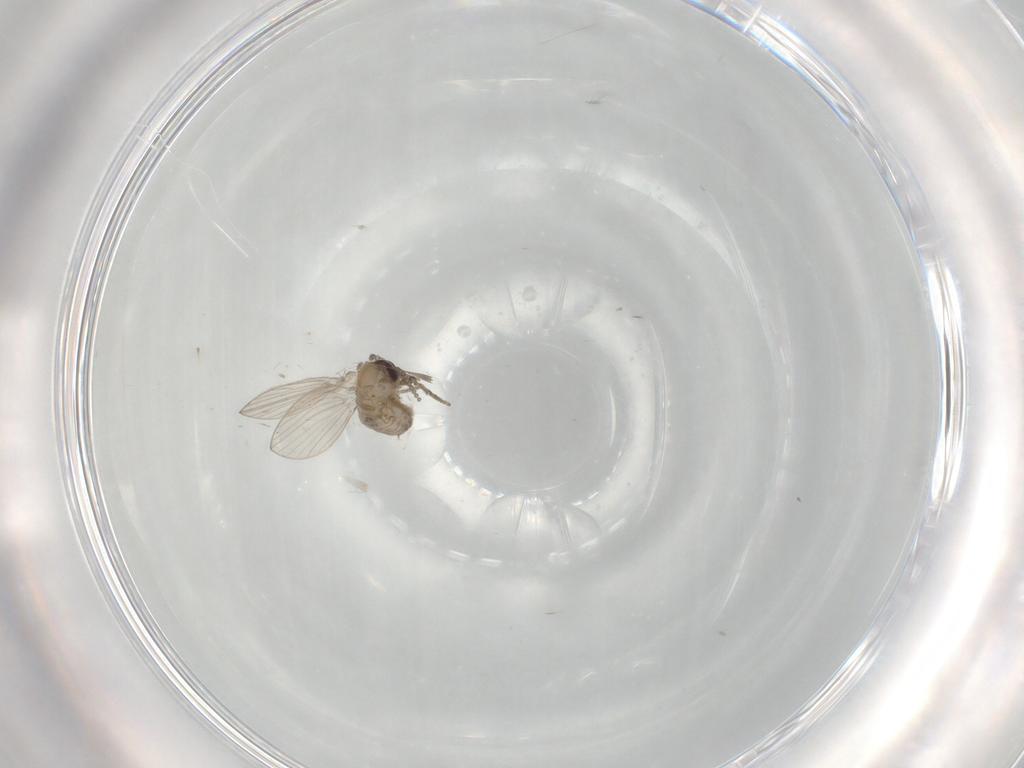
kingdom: Animalia
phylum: Arthropoda
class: Insecta
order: Diptera
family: Cecidomyiidae
